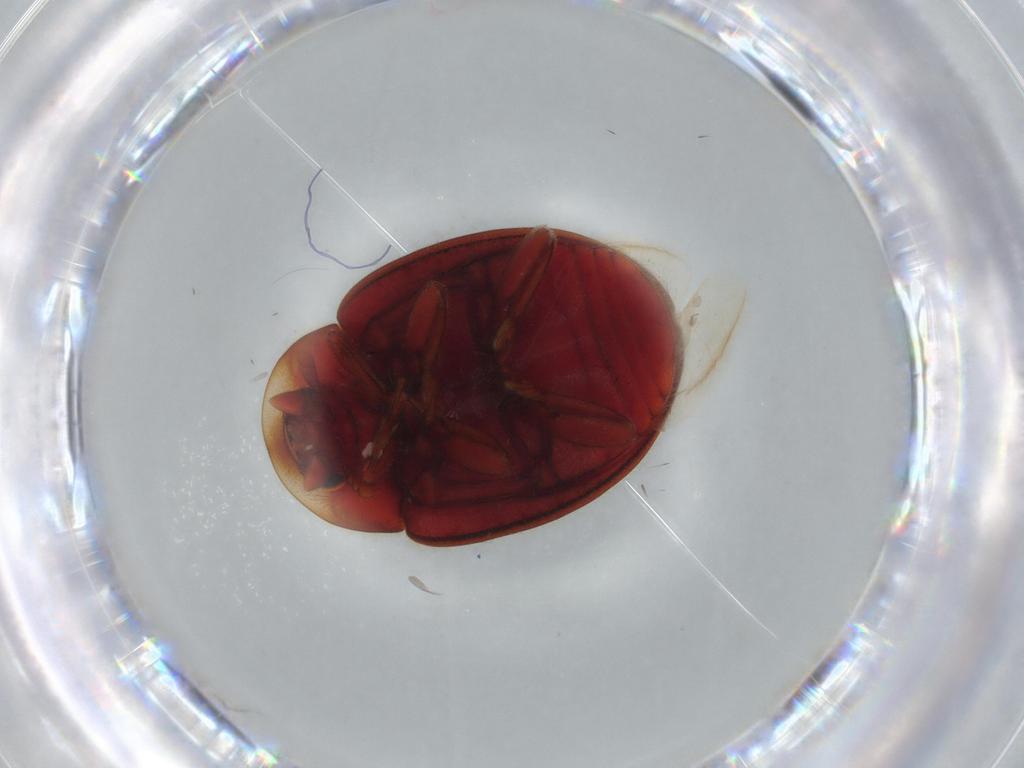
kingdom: Animalia
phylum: Arthropoda
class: Insecta
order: Coleoptera
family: Coccinellidae
